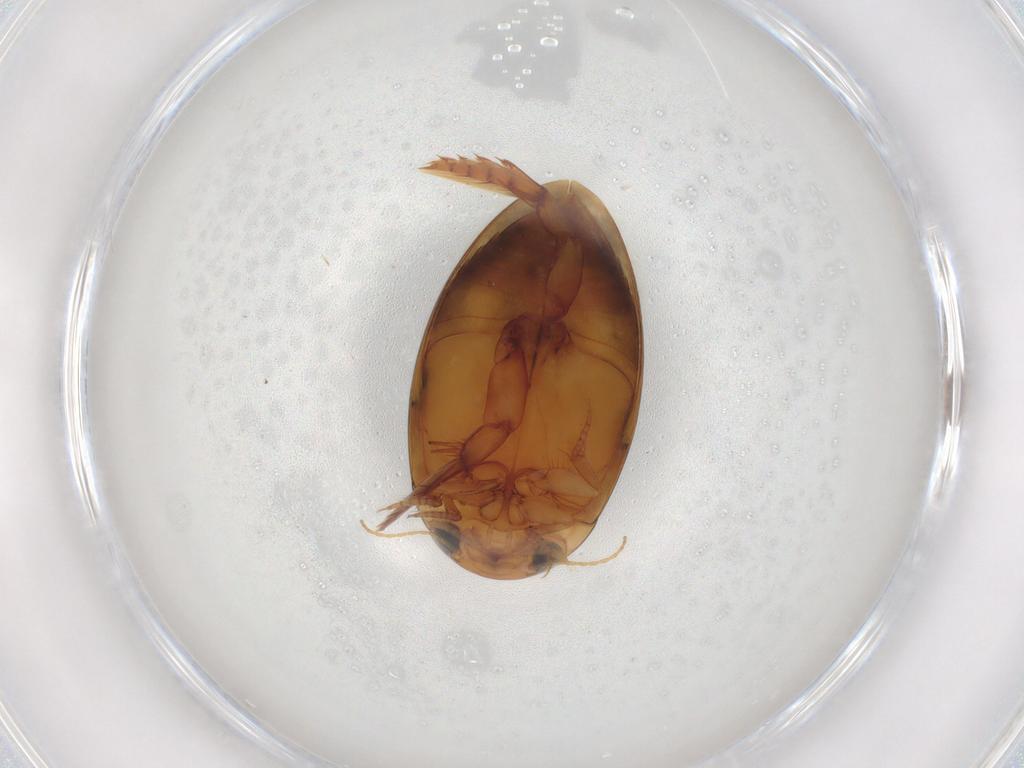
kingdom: Animalia
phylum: Arthropoda
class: Insecta
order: Coleoptera
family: Dytiscidae
